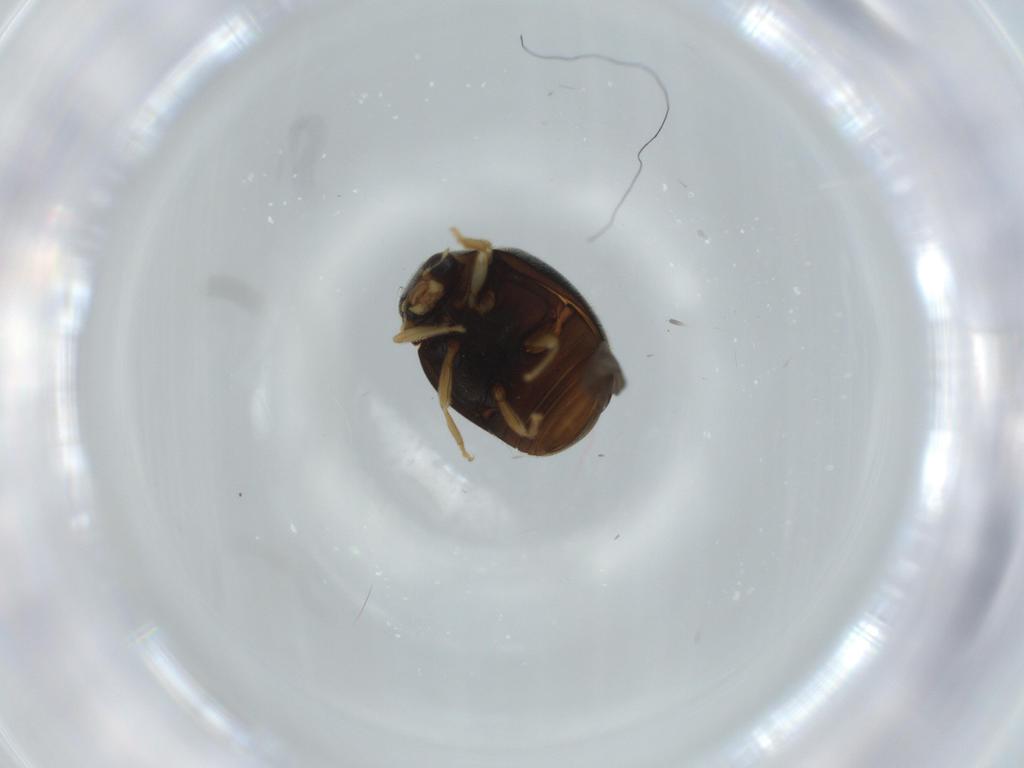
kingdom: Animalia
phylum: Arthropoda
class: Insecta
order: Coleoptera
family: Coccinellidae
